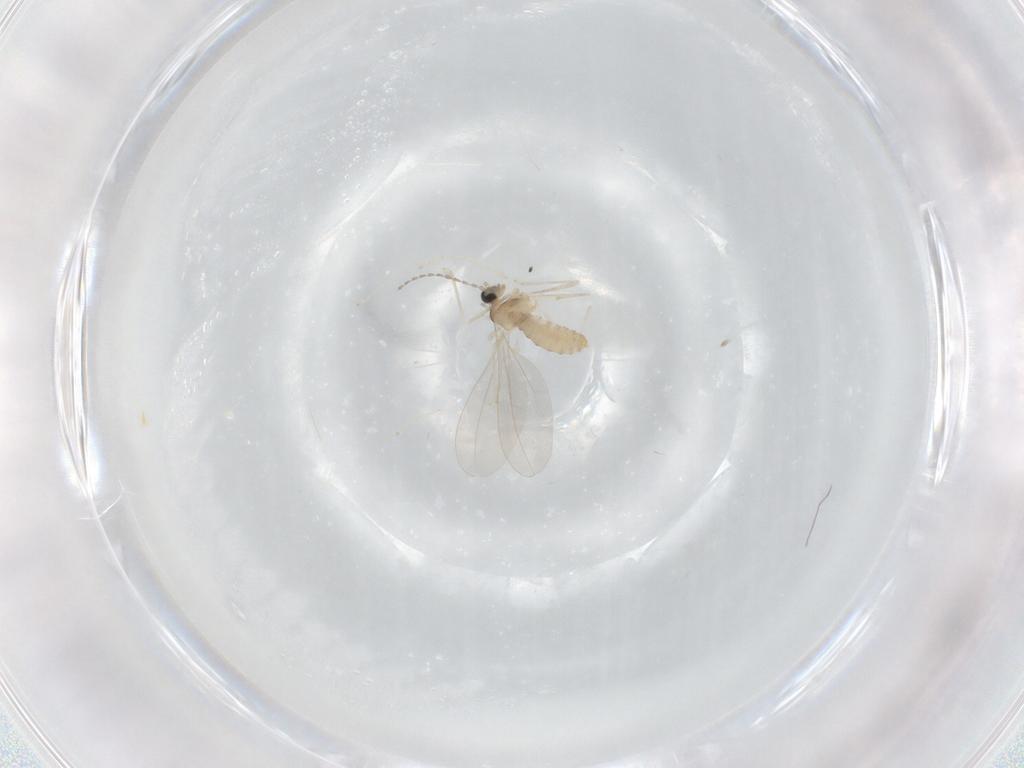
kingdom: Animalia
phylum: Arthropoda
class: Insecta
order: Diptera
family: Cecidomyiidae
